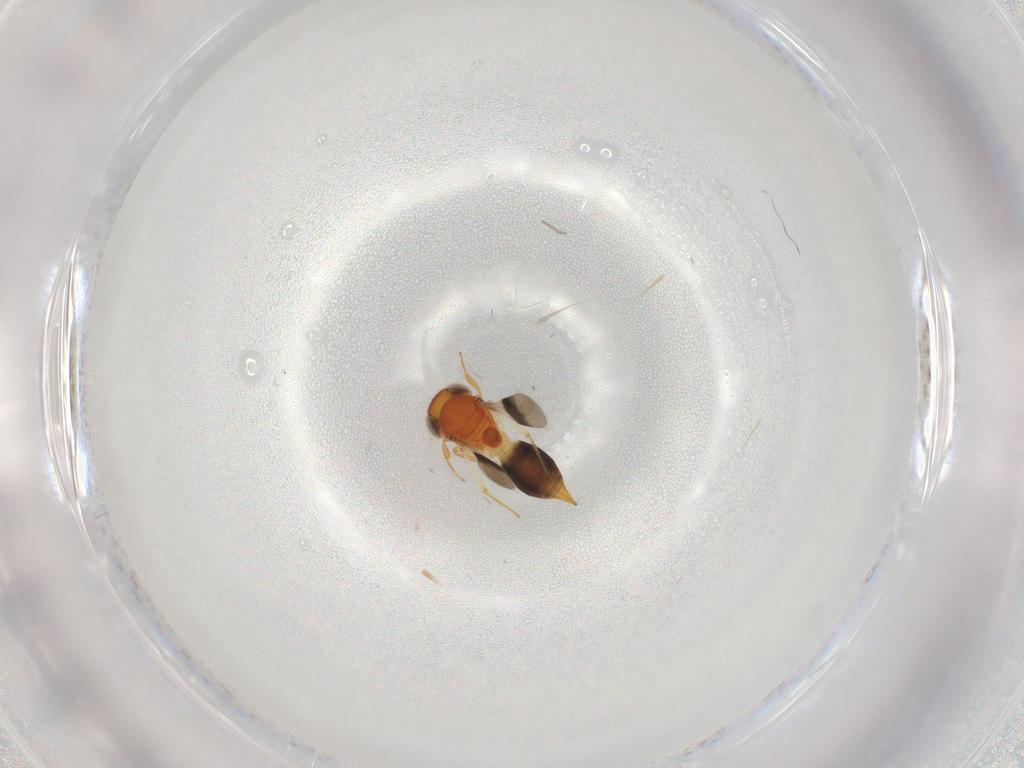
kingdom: Animalia
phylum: Arthropoda
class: Insecta
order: Hymenoptera
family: Scelionidae
